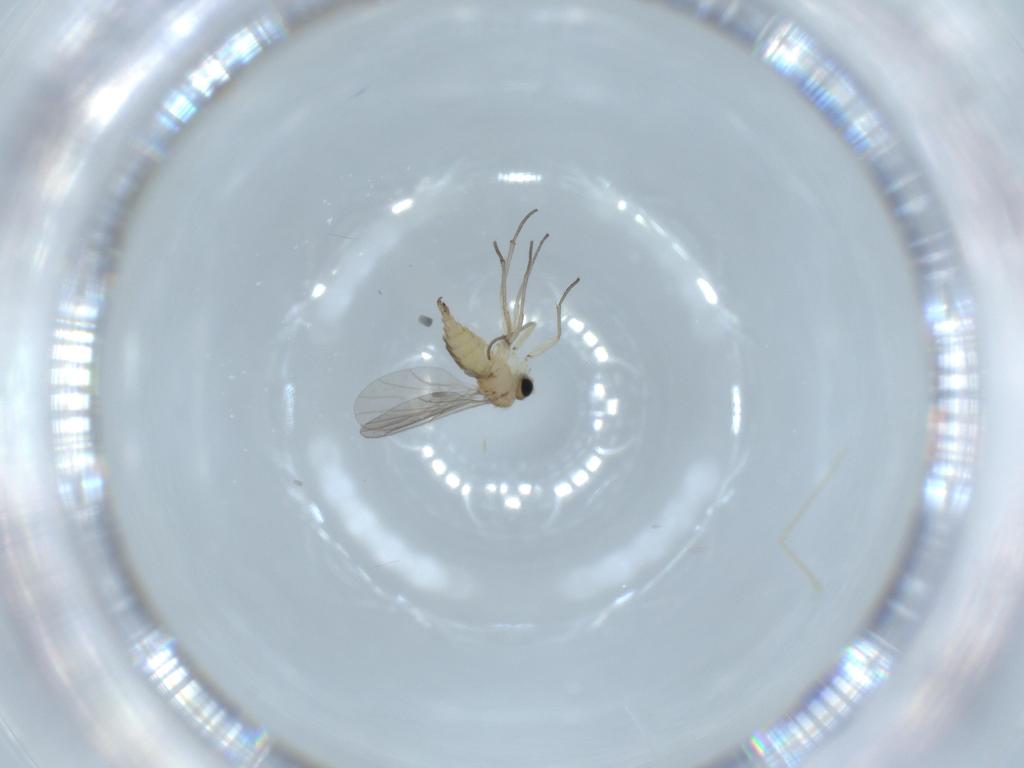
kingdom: Animalia
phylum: Arthropoda
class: Insecta
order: Diptera
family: Sciaridae
